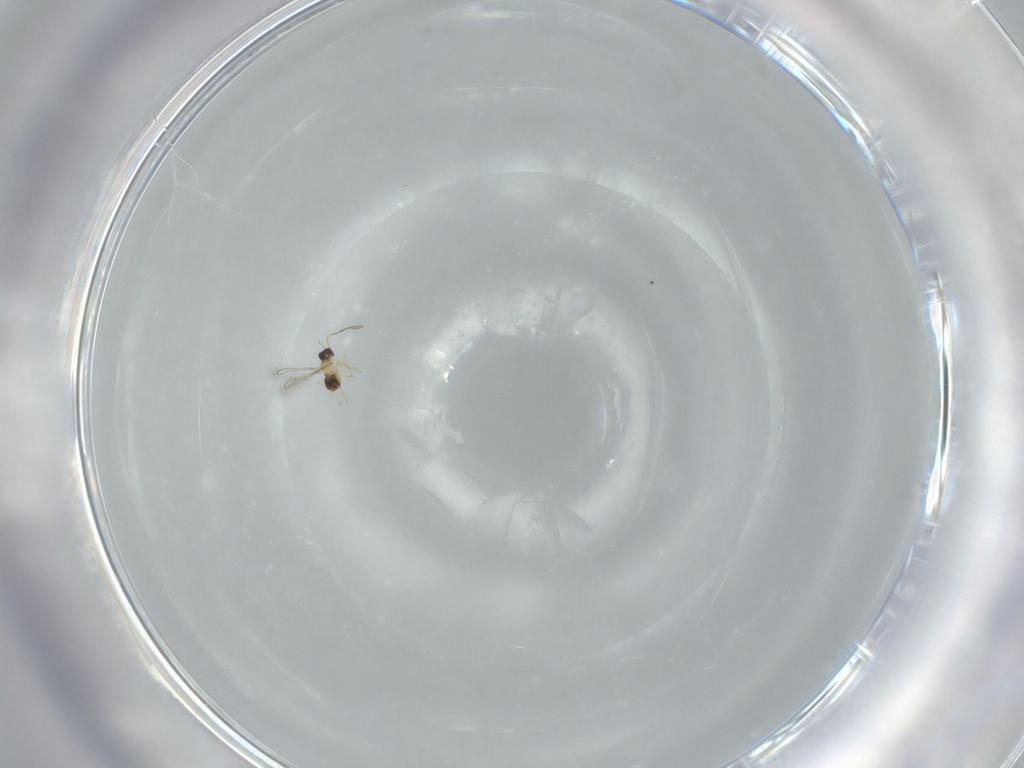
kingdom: Animalia
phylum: Arthropoda
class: Insecta
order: Hymenoptera
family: Mymaridae
